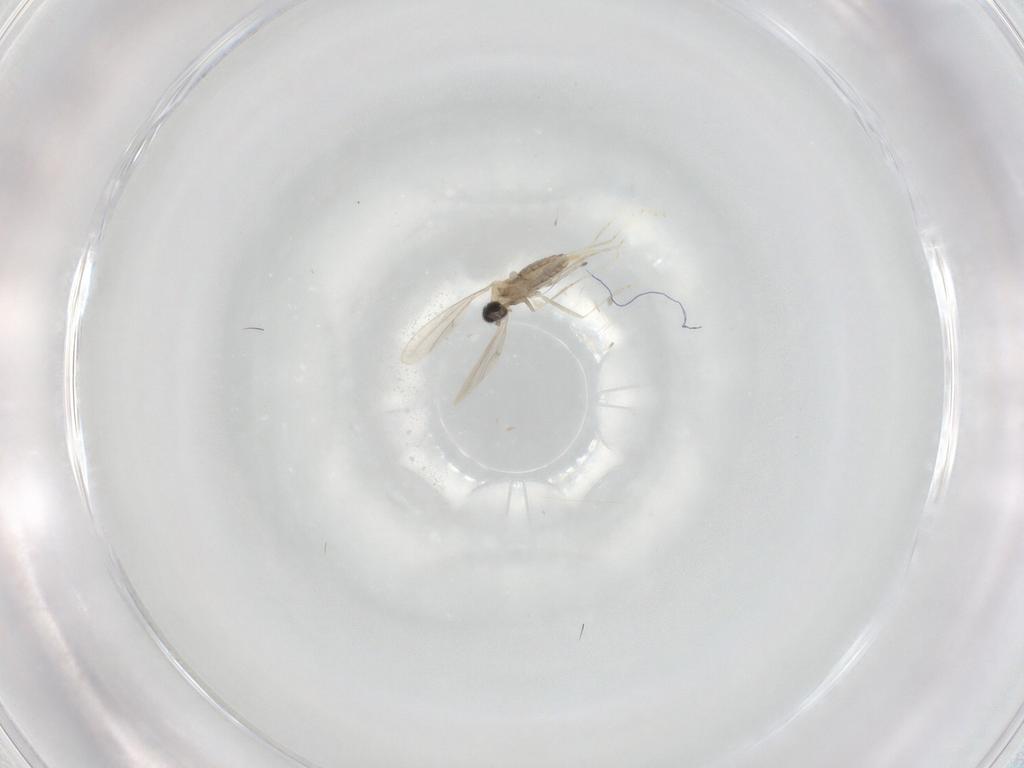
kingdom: Animalia
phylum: Arthropoda
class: Insecta
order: Diptera
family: Cecidomyiidae
